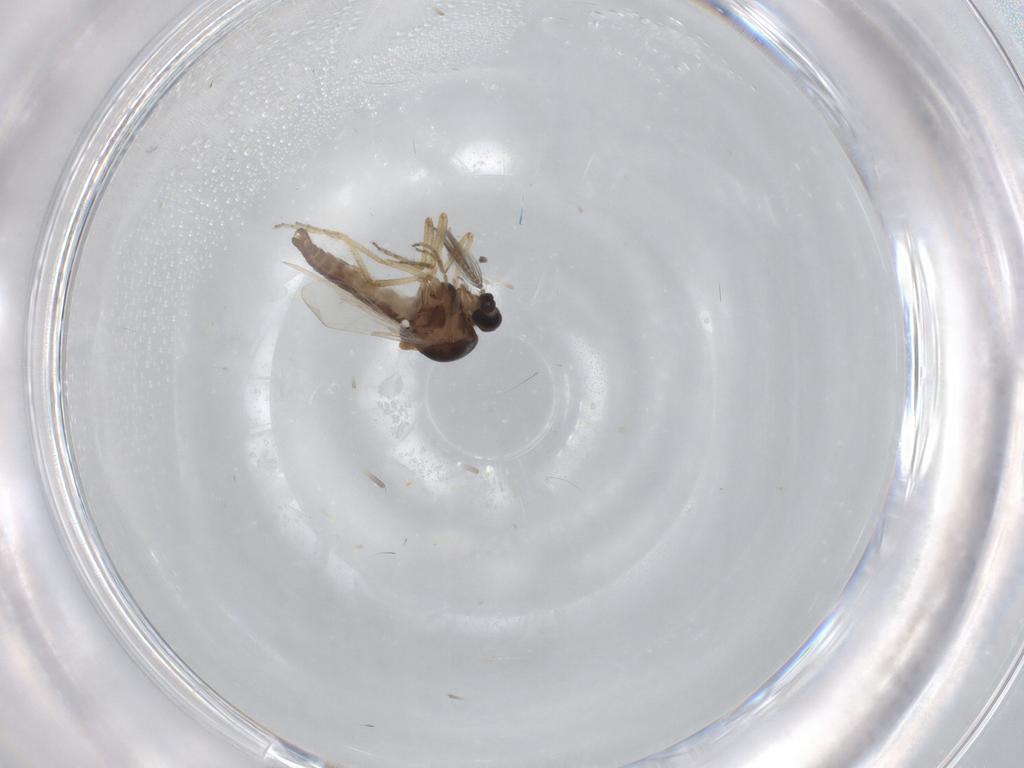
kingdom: Animalia
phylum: Arthropoda
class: Insecta
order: Diptera
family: Ceratopogonidae
